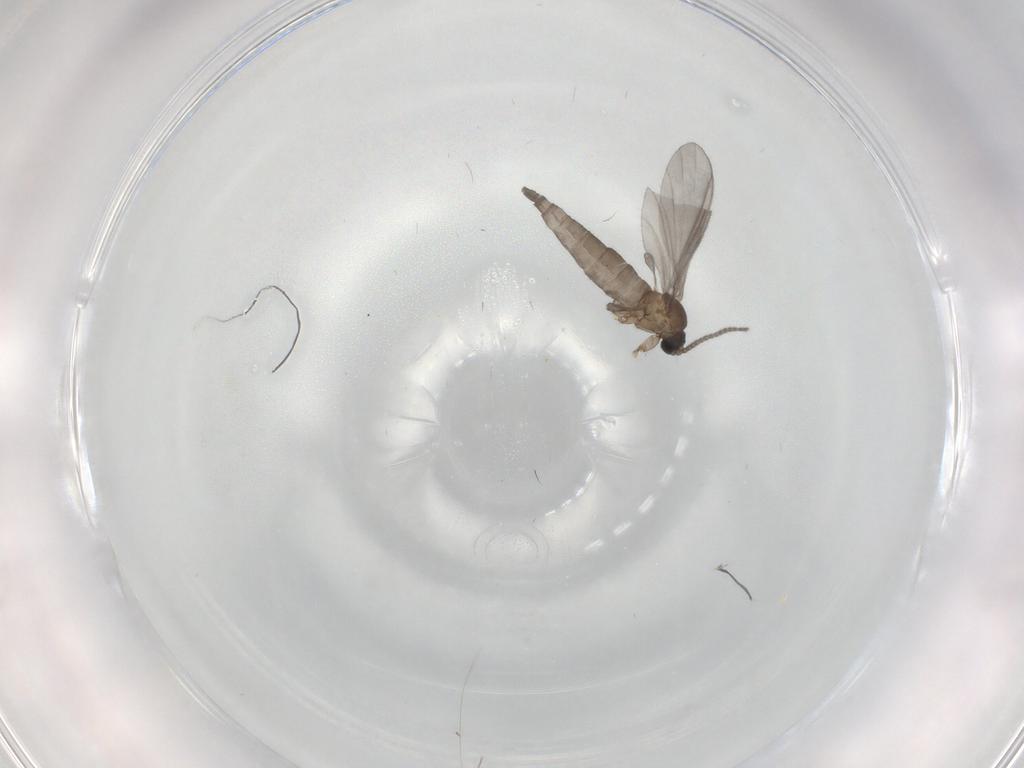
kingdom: Animalia
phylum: Arthropoda
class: Insecta
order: Diptera
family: Sciaridae
